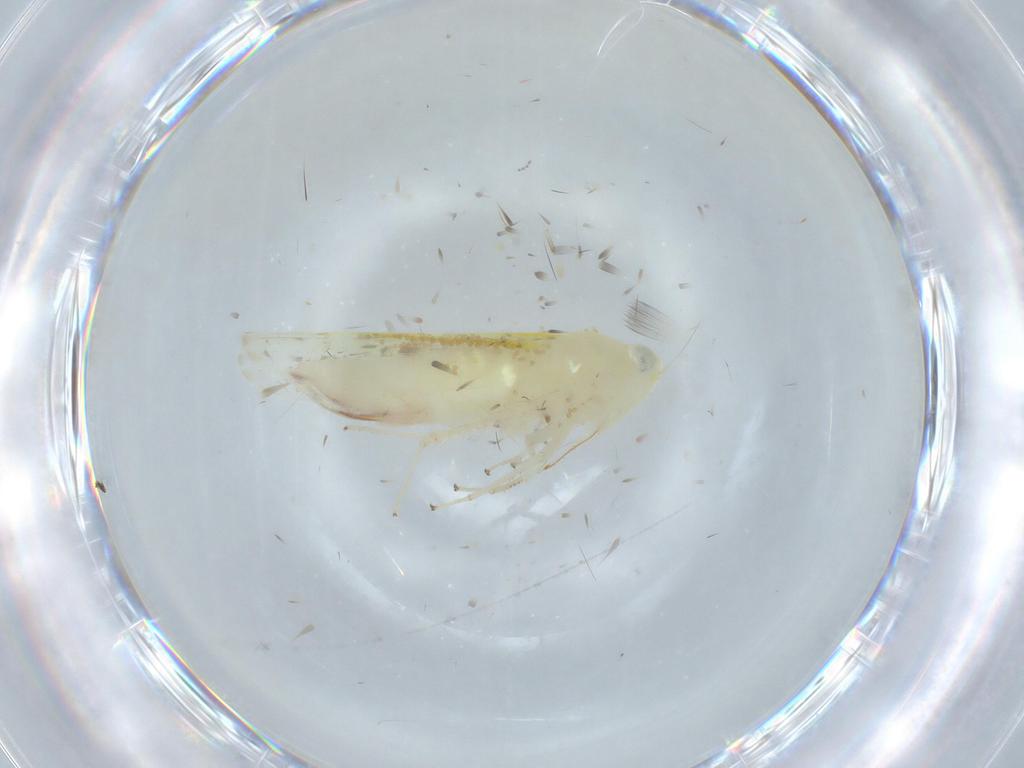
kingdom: Animalia
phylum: Arthropoda
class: Insecta
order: Hemiptera
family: Cicadellidae
